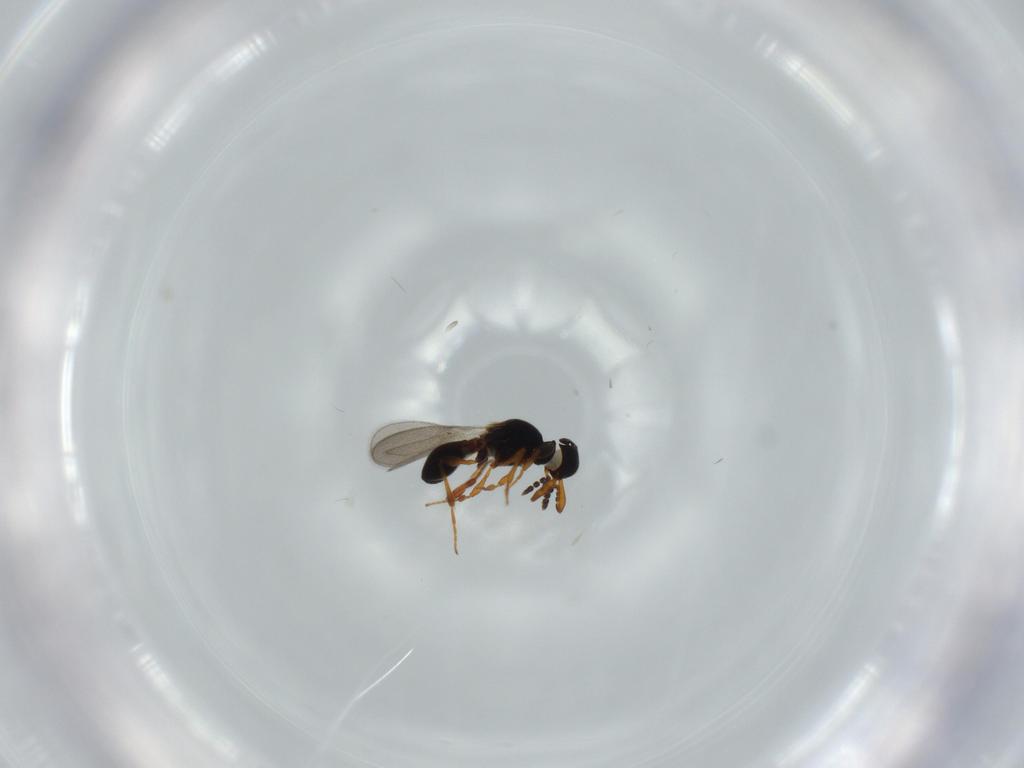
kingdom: Animalia
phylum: Arthropoda
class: Insecta
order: Hymenoptera
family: Platygastridae
